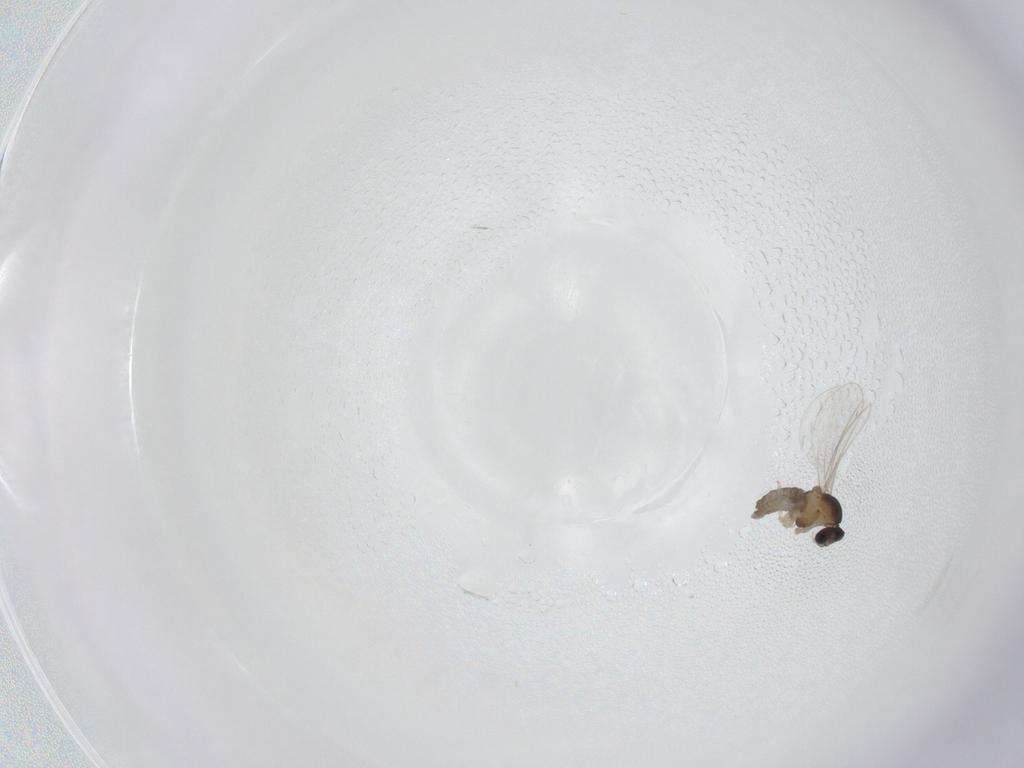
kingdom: Animalia
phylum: Arthropoda
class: Insecta
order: Diptera
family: Cecidomyiidae
